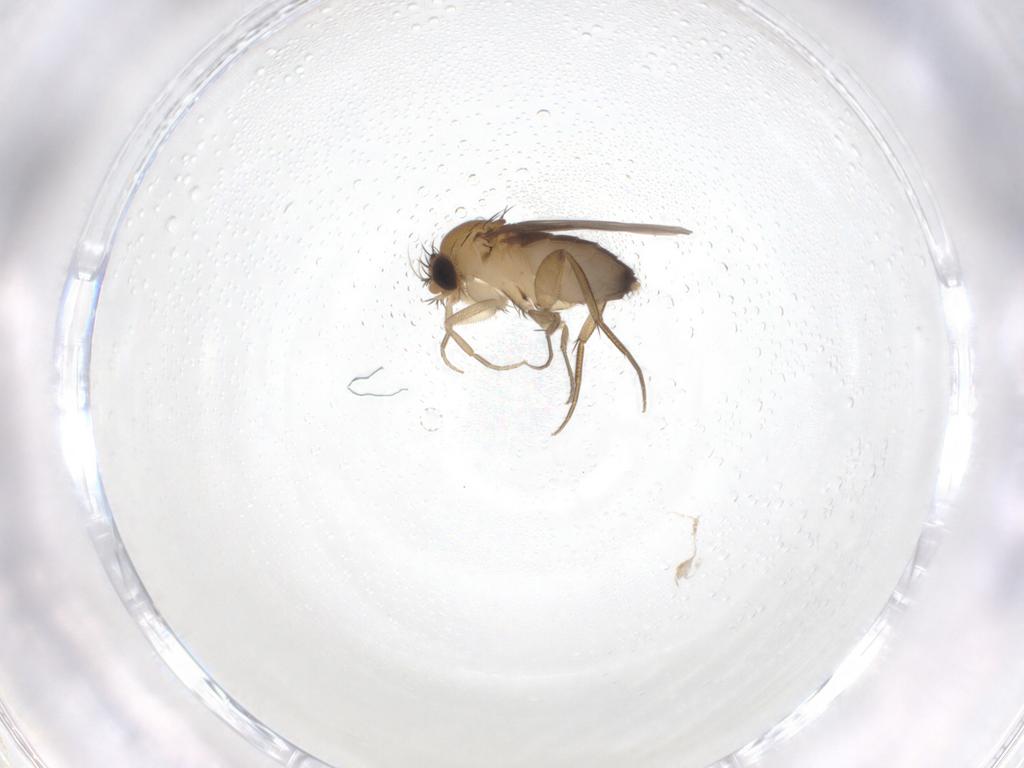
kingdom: Animalia
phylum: Arthropoda
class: Insecta
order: Diptera
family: Phoridae
